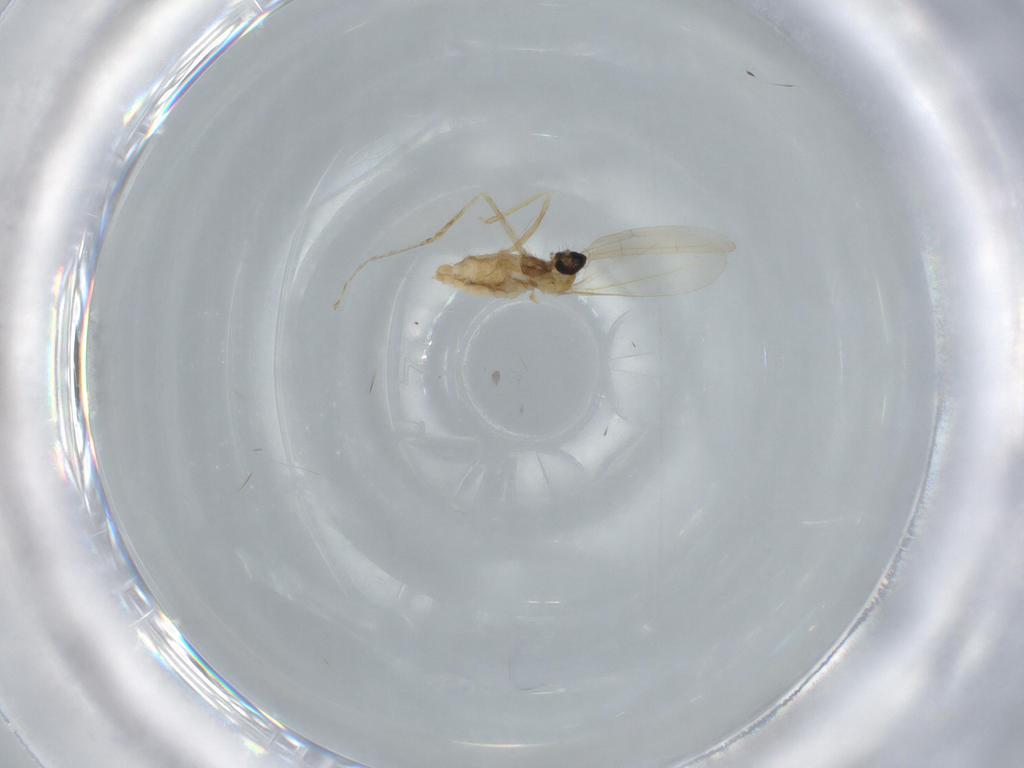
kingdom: Animalia
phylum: Arthropoda
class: Insecta
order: Diptera
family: Cecidomyiidae
